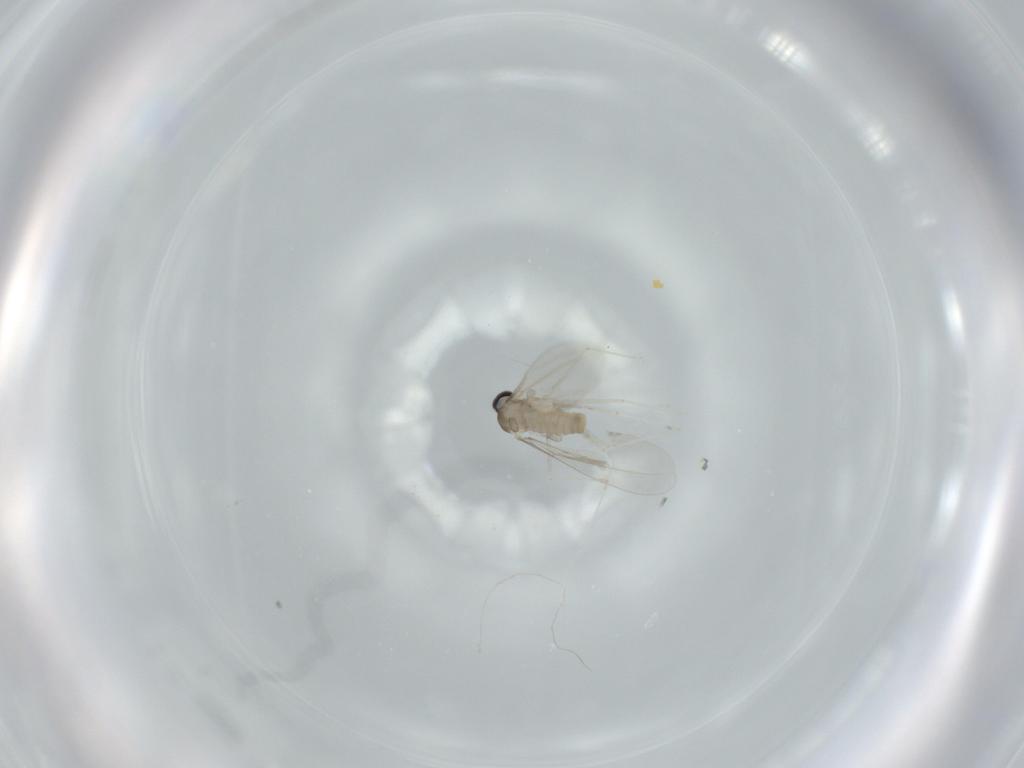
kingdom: Animalia
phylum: Arthropoda
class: Insecta
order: Diptera
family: Cecidomyiidae
